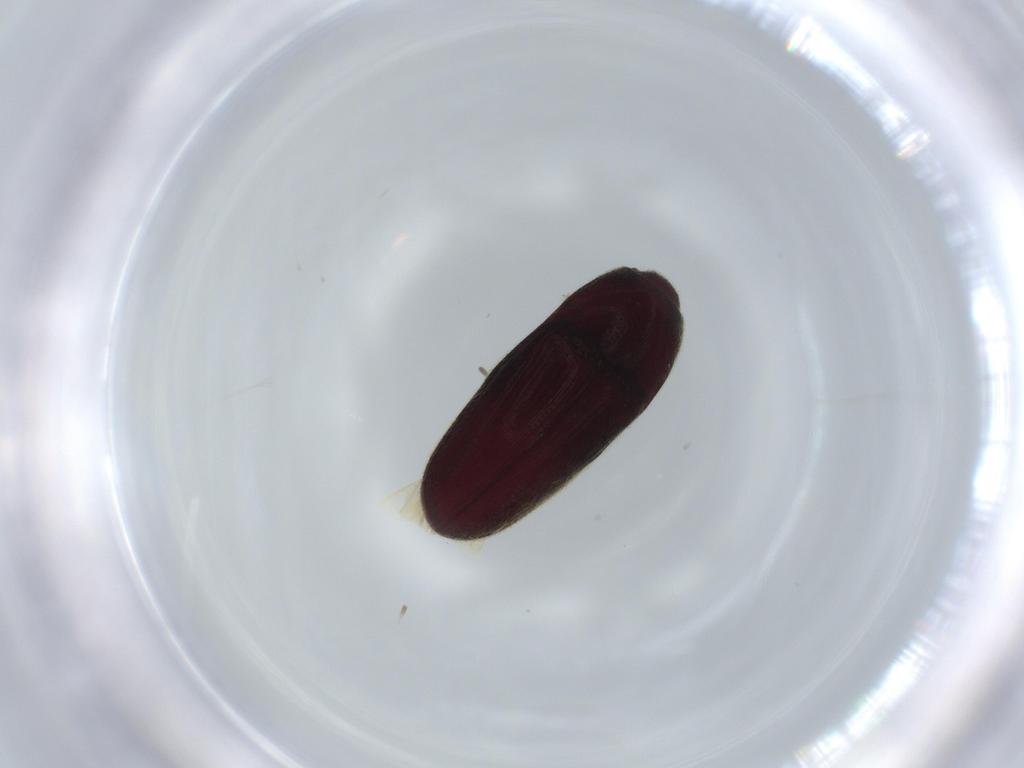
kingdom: Animalia
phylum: Arthropoda
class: Insecta
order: Coleoptera
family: Throscidae
